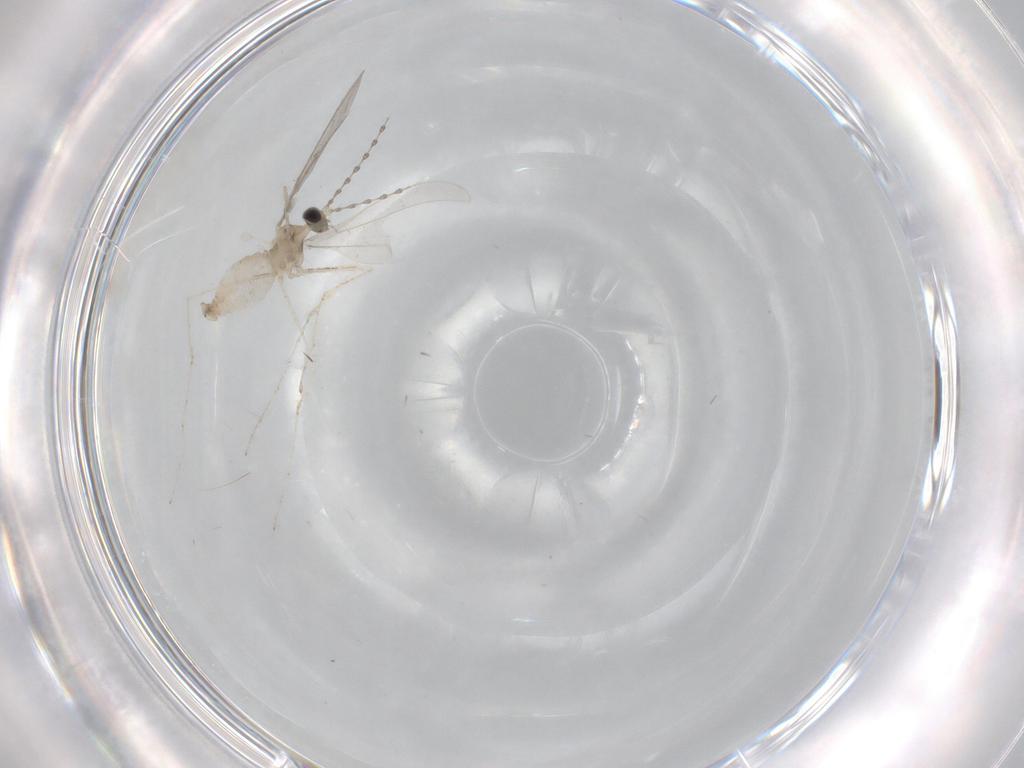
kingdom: Animalia
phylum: Arthropoda
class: Insecta
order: Diptera
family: Cecidomyiidae
